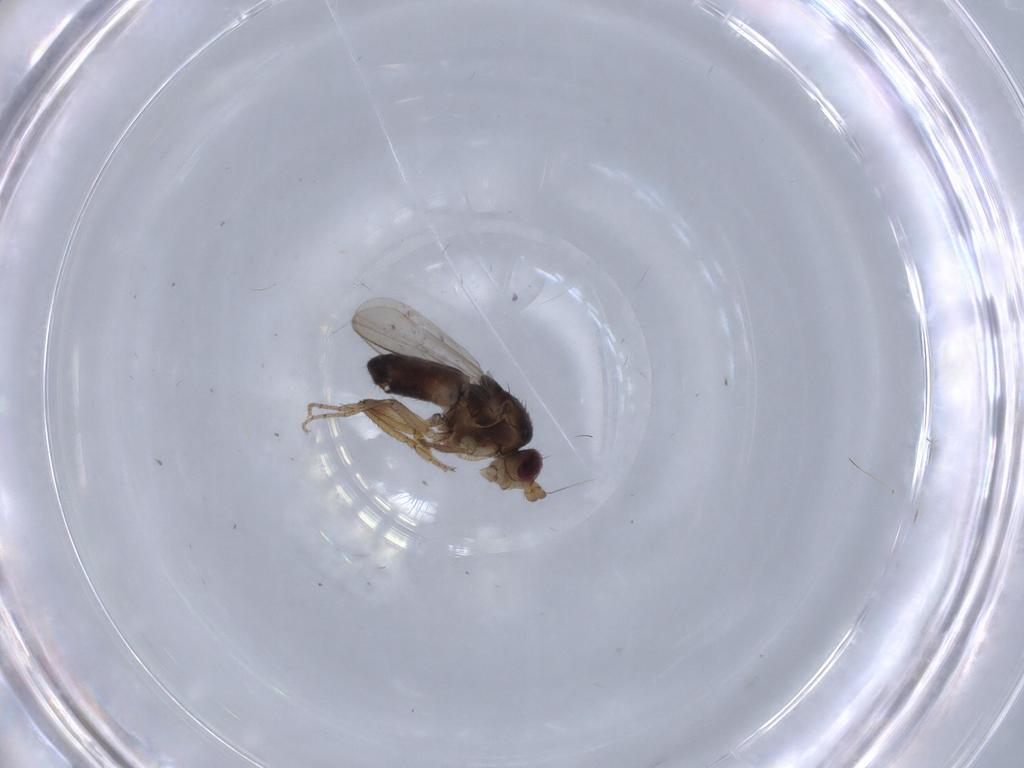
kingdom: Animalia
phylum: Arthropoda
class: Insecta
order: Diptera
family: Sphaeroceridae
